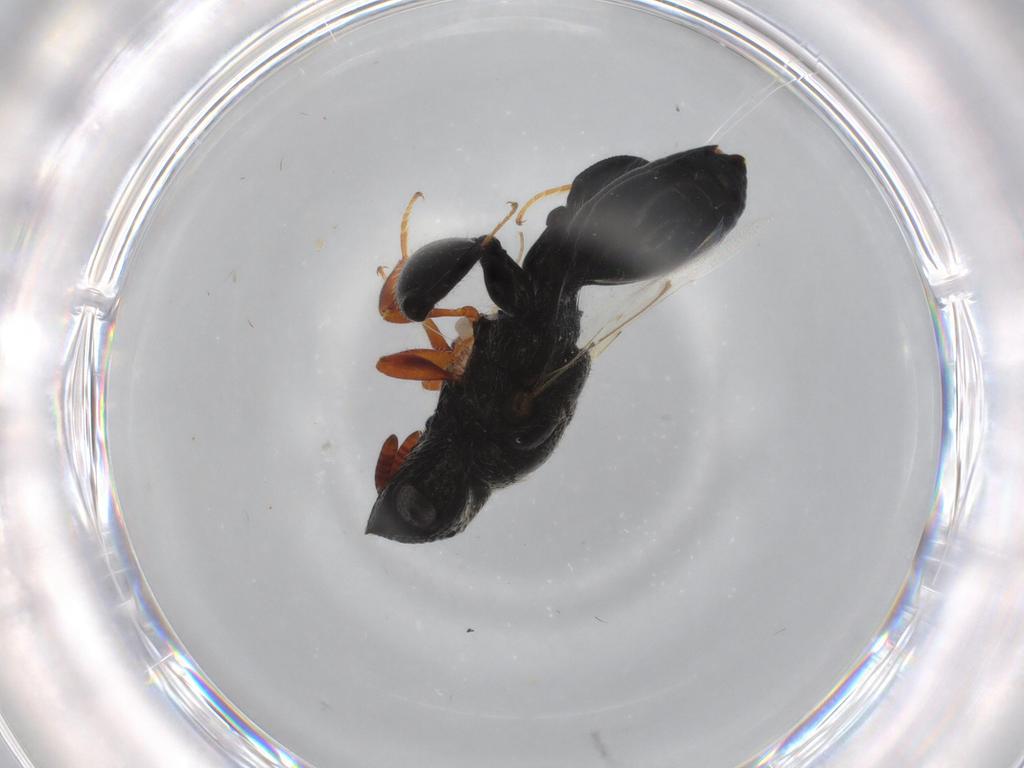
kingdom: Animalia
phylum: Arthropoda
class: Insecta
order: Hymenoptera
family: Chalcididae
